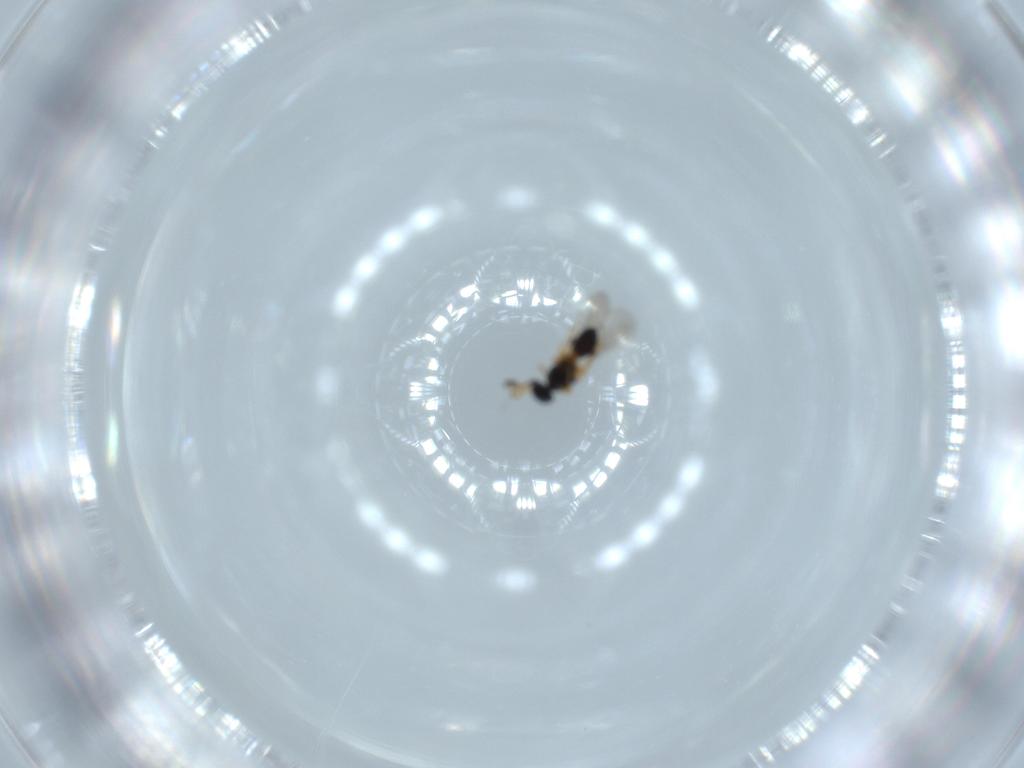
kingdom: Animalia
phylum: Arthropoda
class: Insecta
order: Hymenoptera
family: Platygastridae
